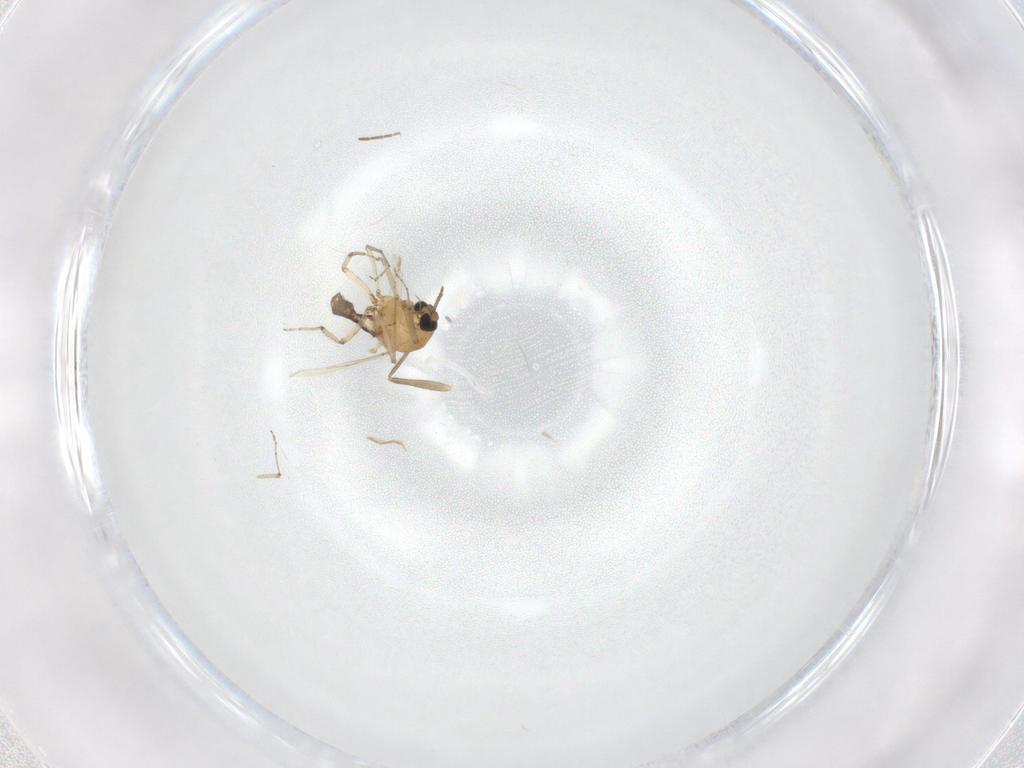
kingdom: Animalia
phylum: Arthropoda
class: Insecta
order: Diptera
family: Ceratopogonidae
